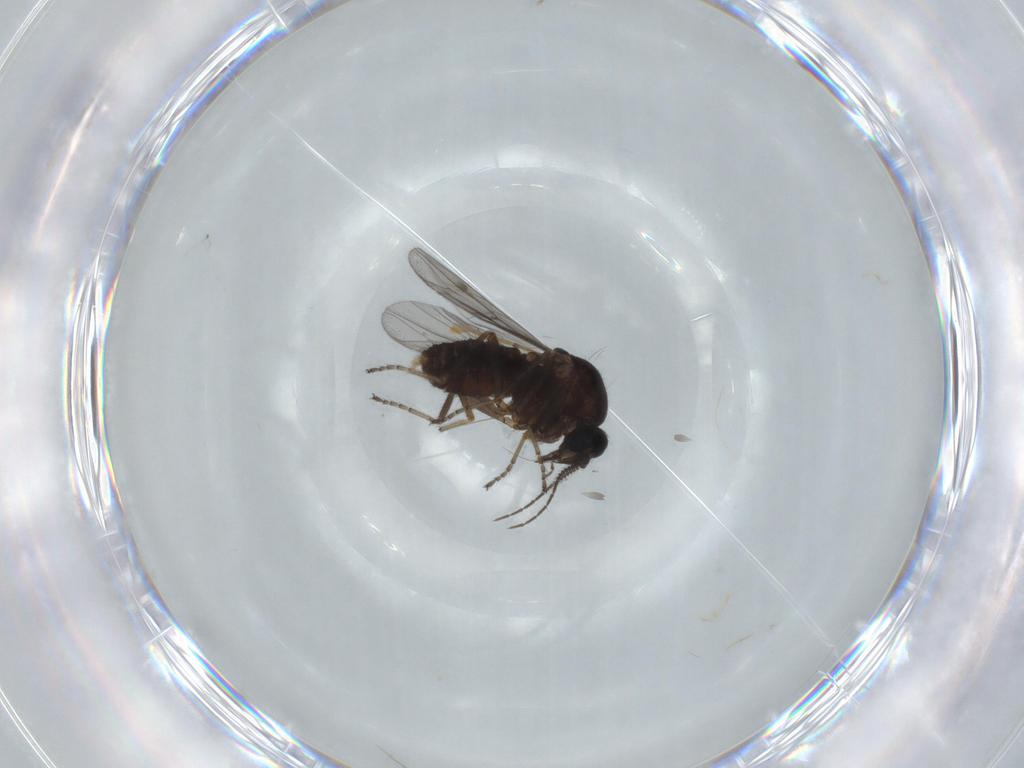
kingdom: Animalia
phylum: Arthropoda
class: Insecta
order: Diptera
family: Ceratopogonidae
